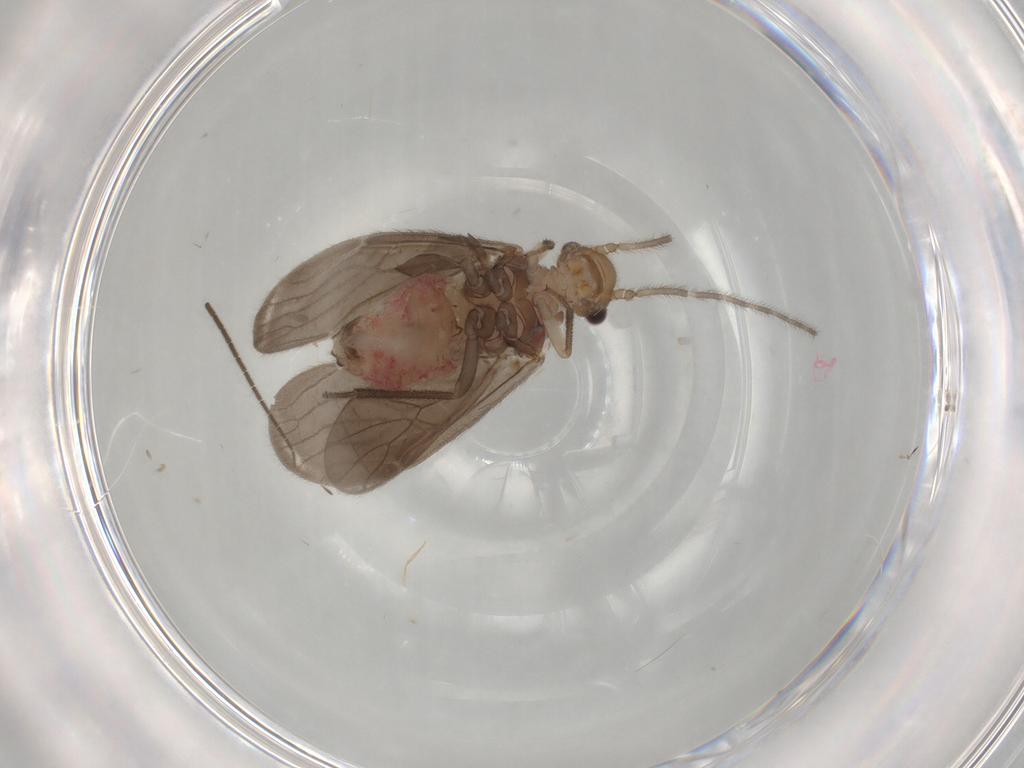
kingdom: Animalia
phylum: Arthropoda
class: Insecta
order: Psocodea
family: Amphipsocidae
